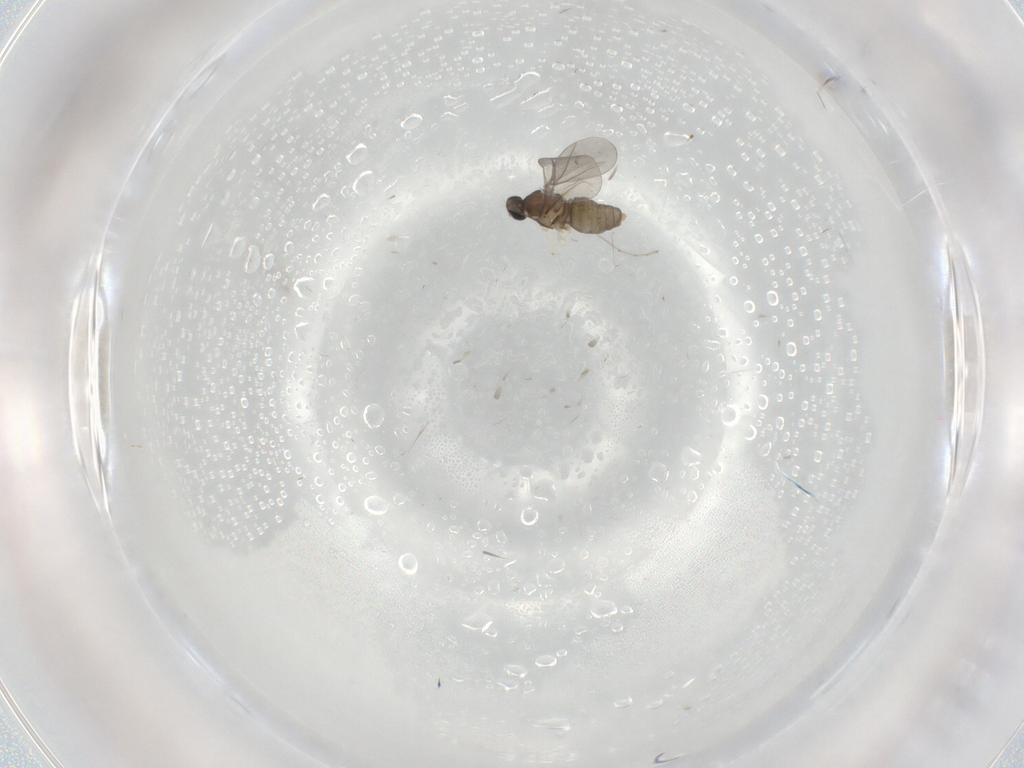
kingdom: Animalia
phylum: Arthropoda
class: Insecta
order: Diptera
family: Cecidomyiidae
